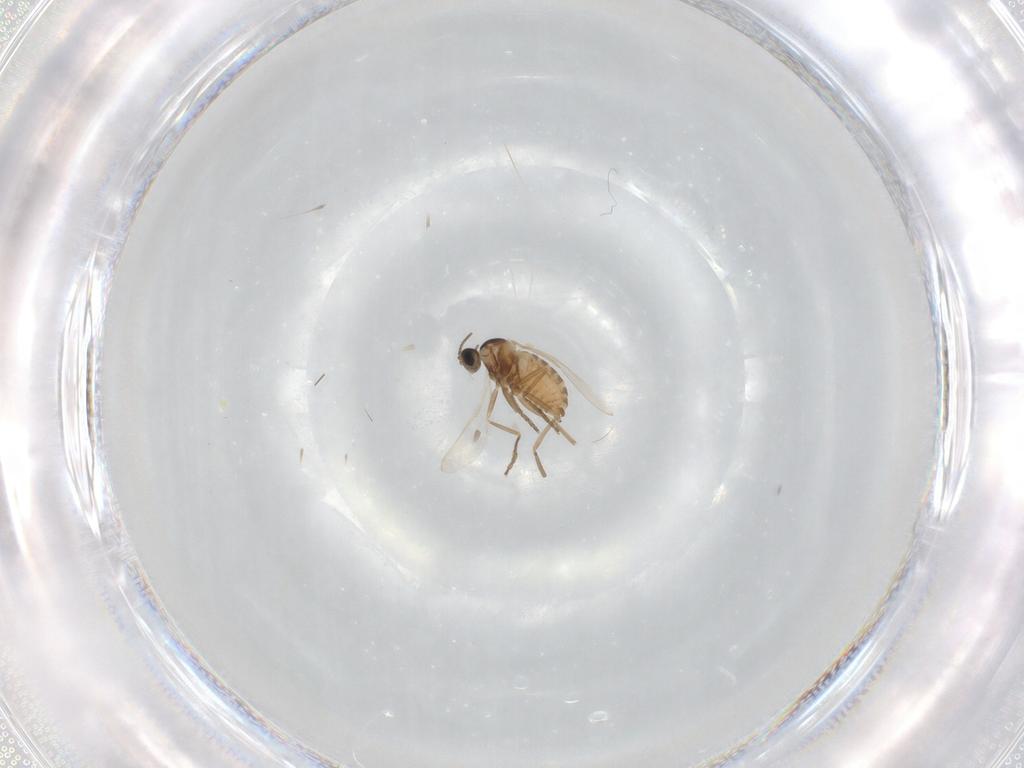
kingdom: Animalia
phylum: Arthropoda
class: Insecta
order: Diptera
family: Cecidomyiidae
